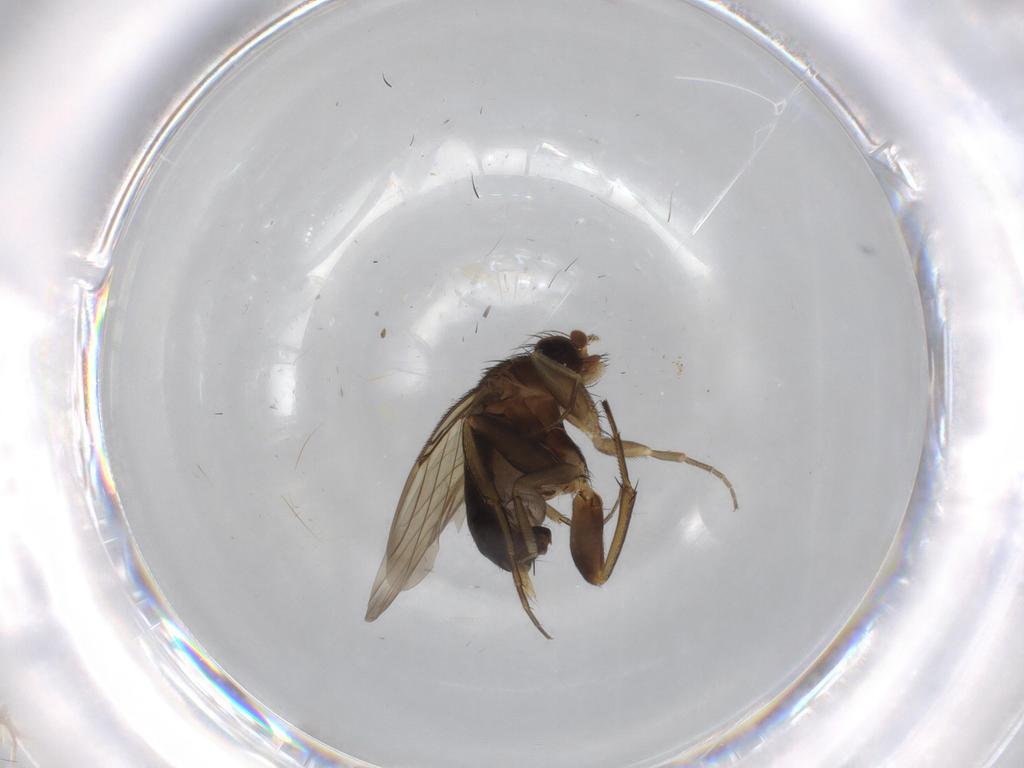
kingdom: Animalia
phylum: Arthropoda
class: Insecta
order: Diptera
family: Phoridae
